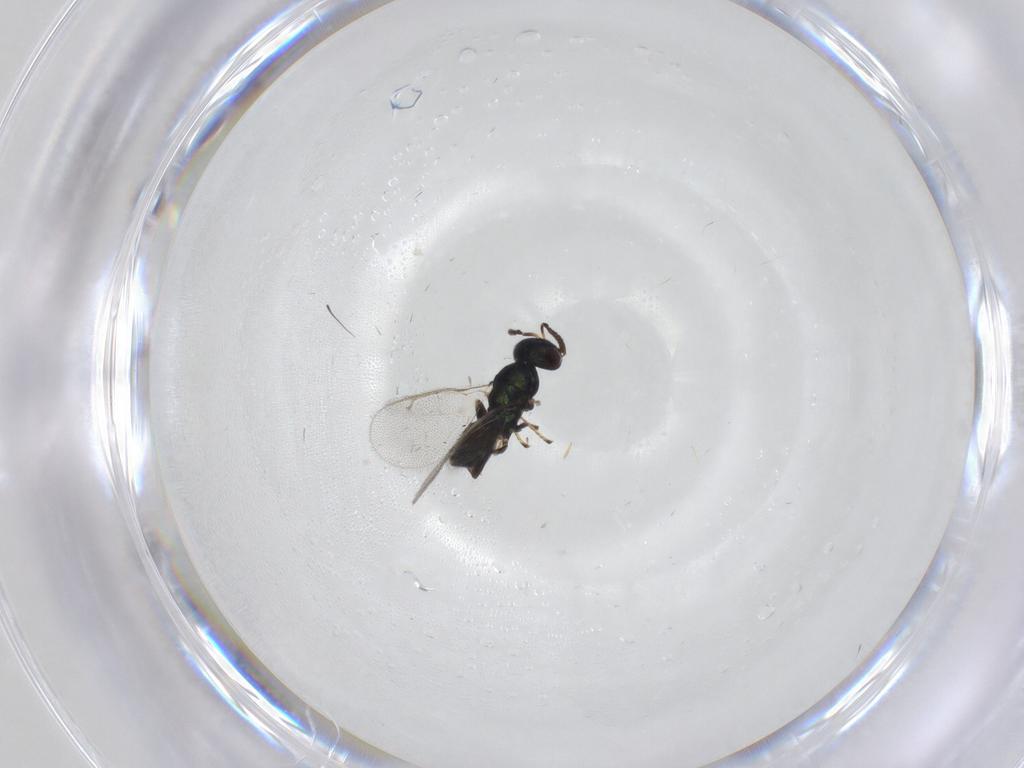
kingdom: Animalia
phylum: Arthropoda
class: Insecta
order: Hymenoptera
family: Pteromalidae
